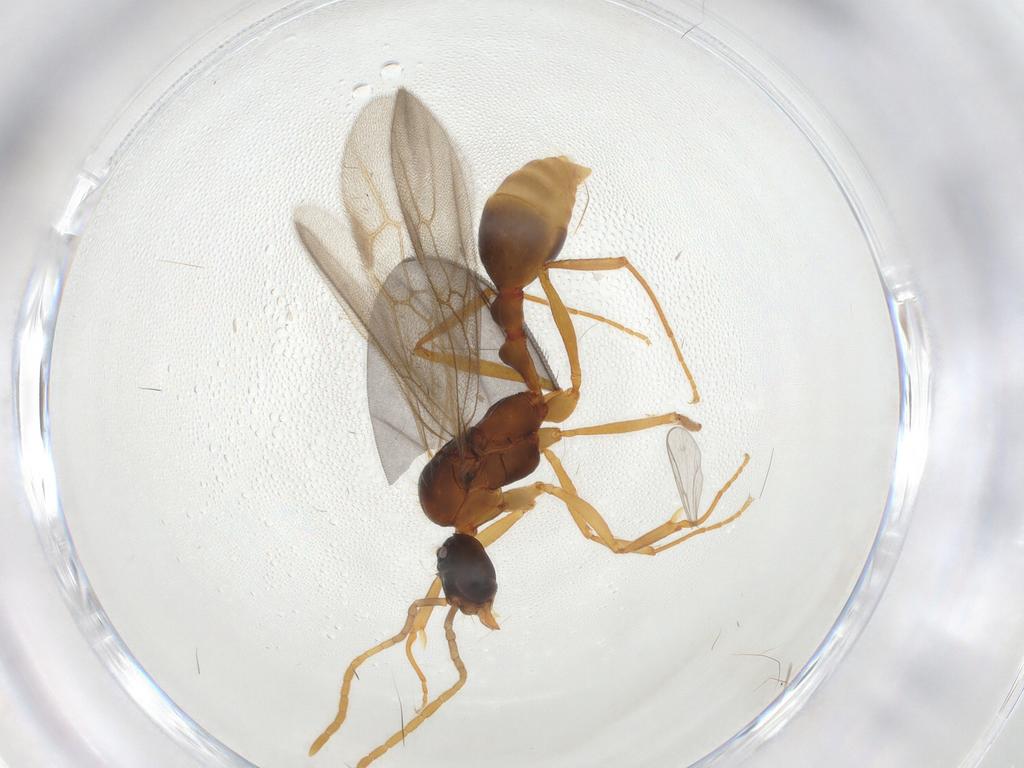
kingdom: Animalia
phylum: Arthropoda
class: Insecta
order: Hymenoptera
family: Formicidae
